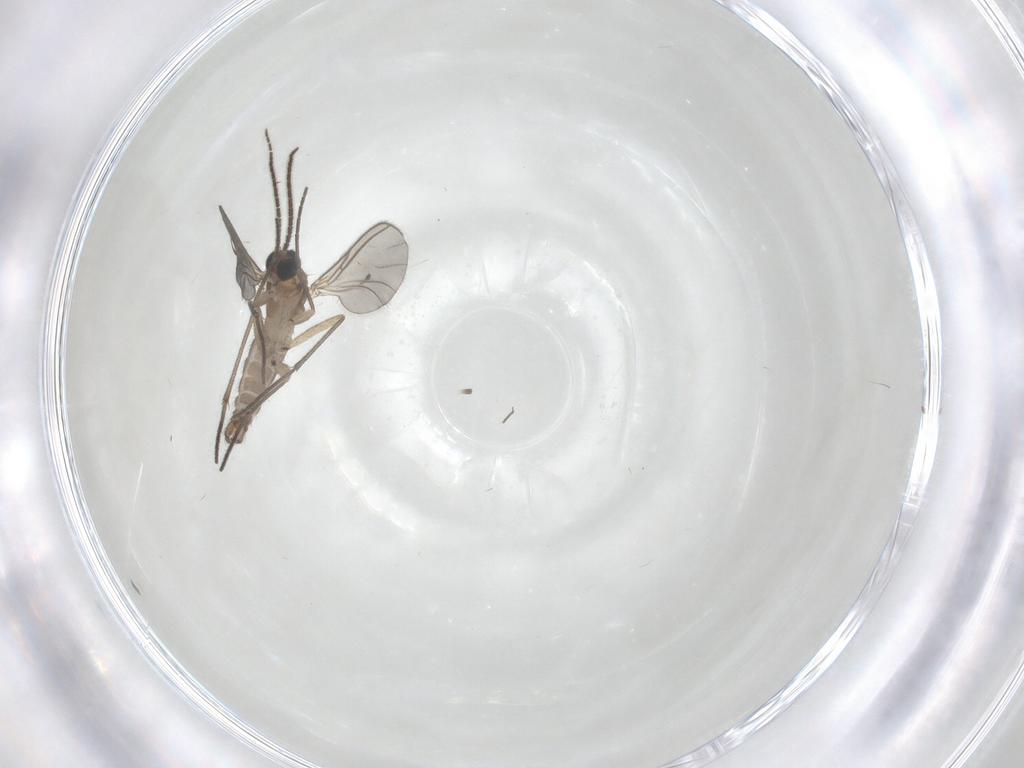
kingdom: Animalia
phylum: Arthropoda
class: Insecta
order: Diptera
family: Sciaridae
